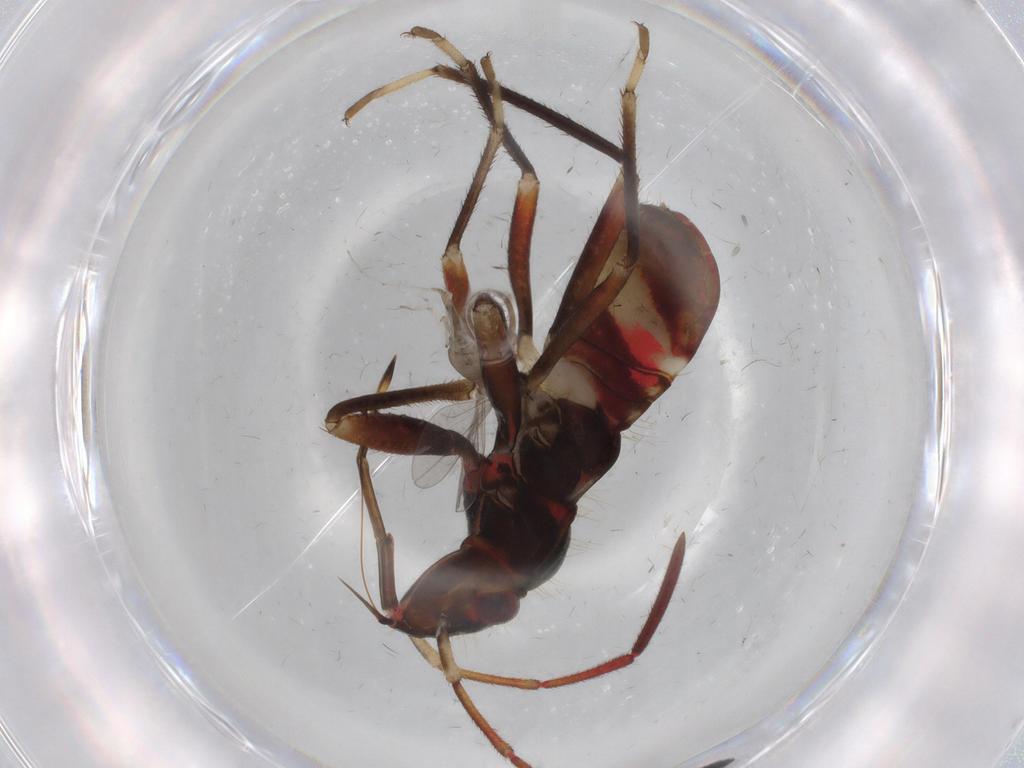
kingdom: Animalia
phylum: Arthropoda
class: Insecta
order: Hemiptera
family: Rhyparochromidae
